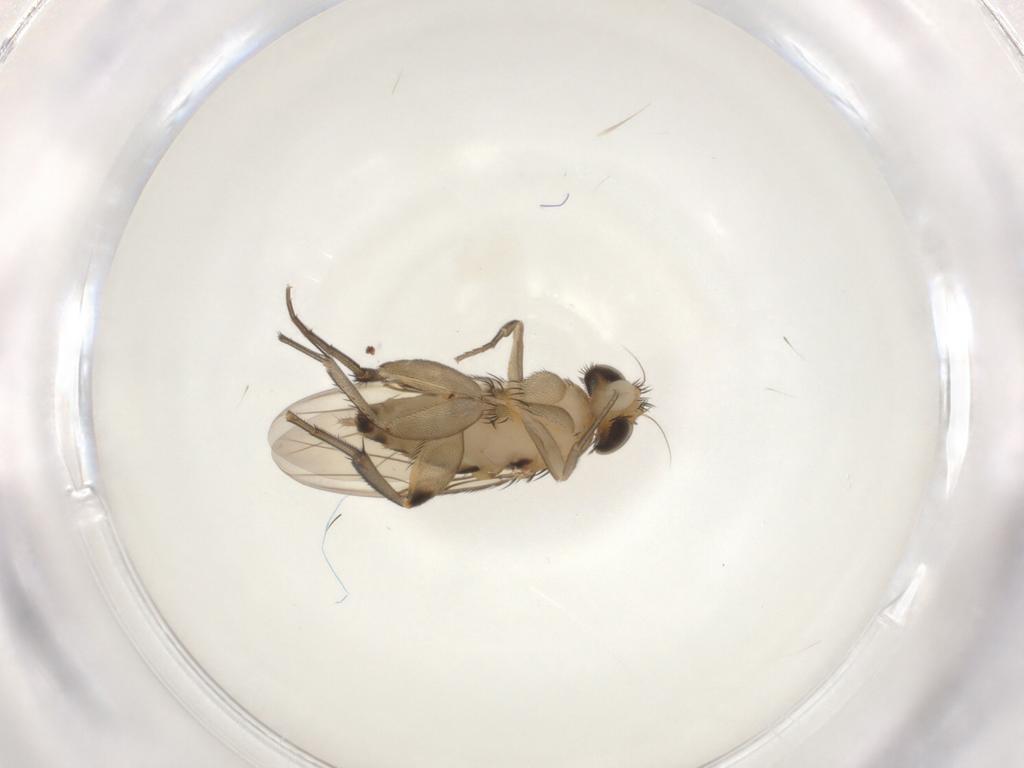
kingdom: Animalia
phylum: Arthropoda
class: Insecta
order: Diptera
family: Phoridae
